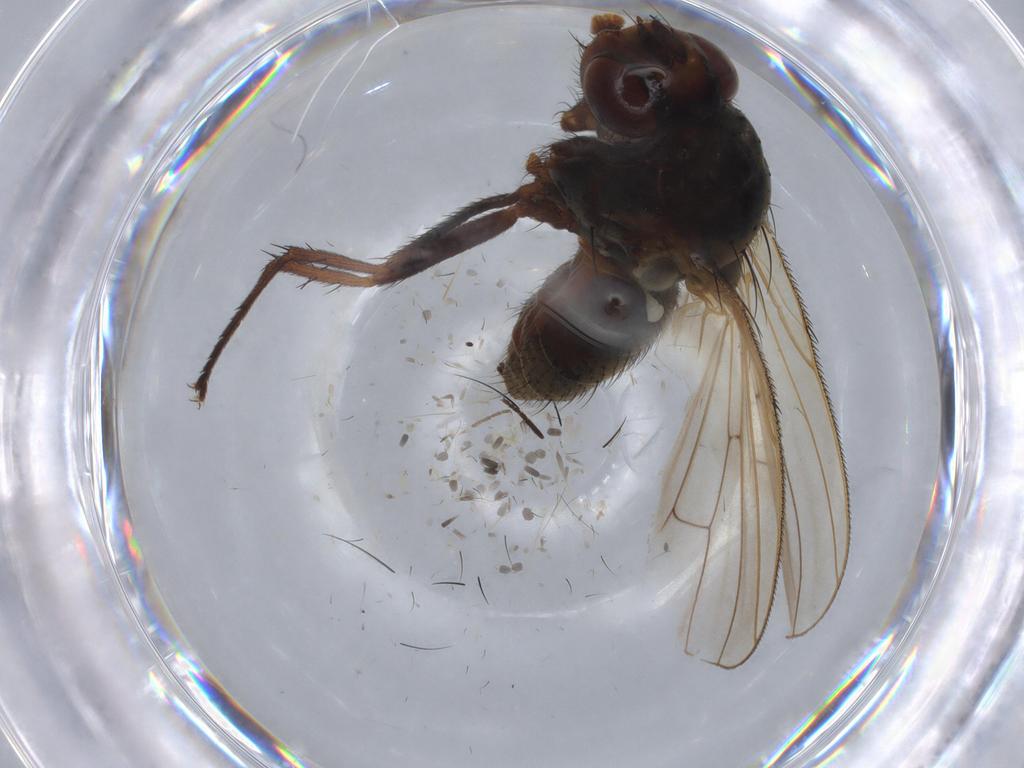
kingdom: Animalia
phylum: Arthropoda
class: Insecta
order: Diptera
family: Anthomyiidae
